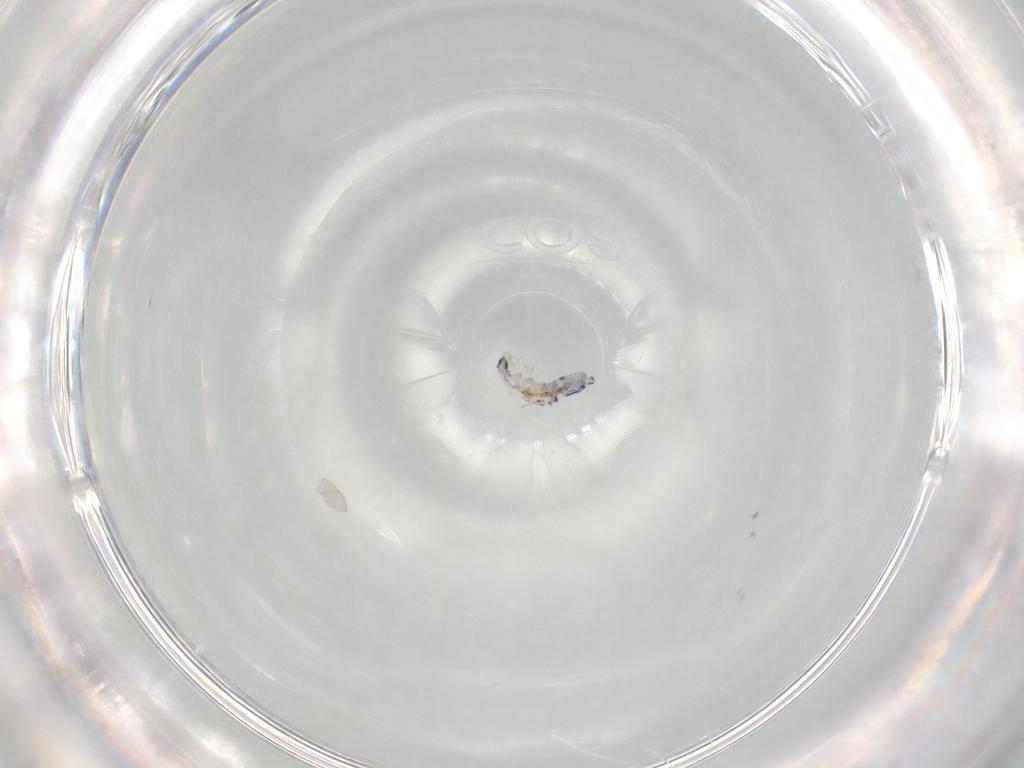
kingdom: Animalia
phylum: Arthropoda
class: Collembola
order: Entomobryomorpha
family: Entomobryidae
